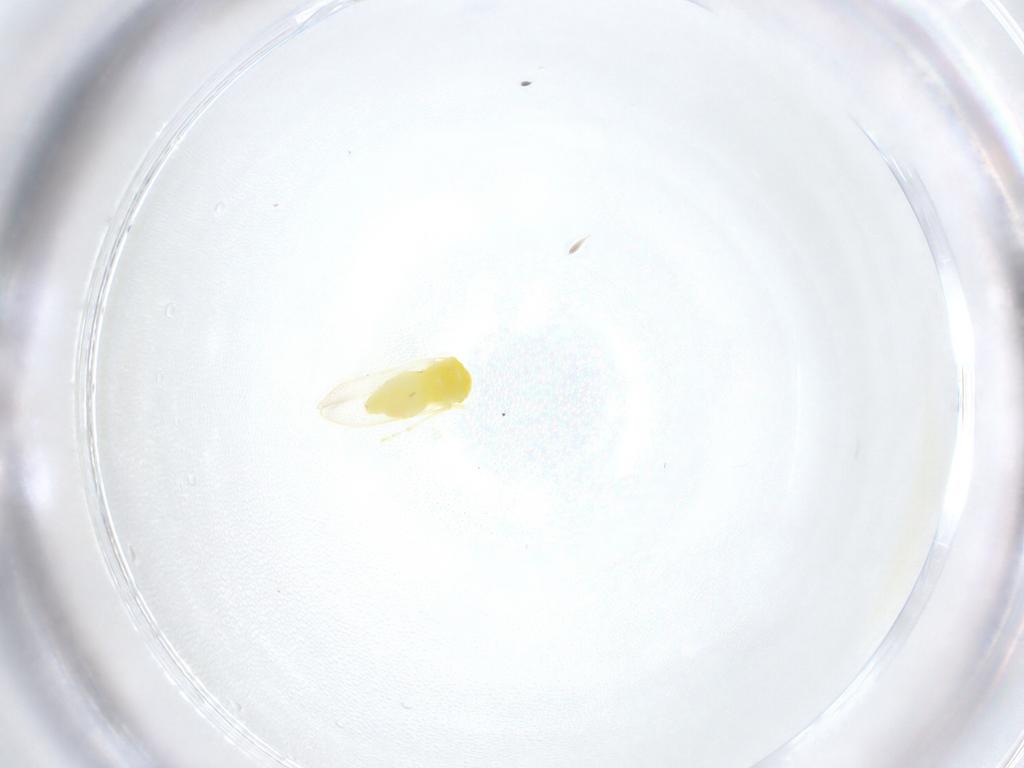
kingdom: Animalia
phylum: Arthropoda
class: Insecta
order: Hemiptera
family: Aleyrodidae
